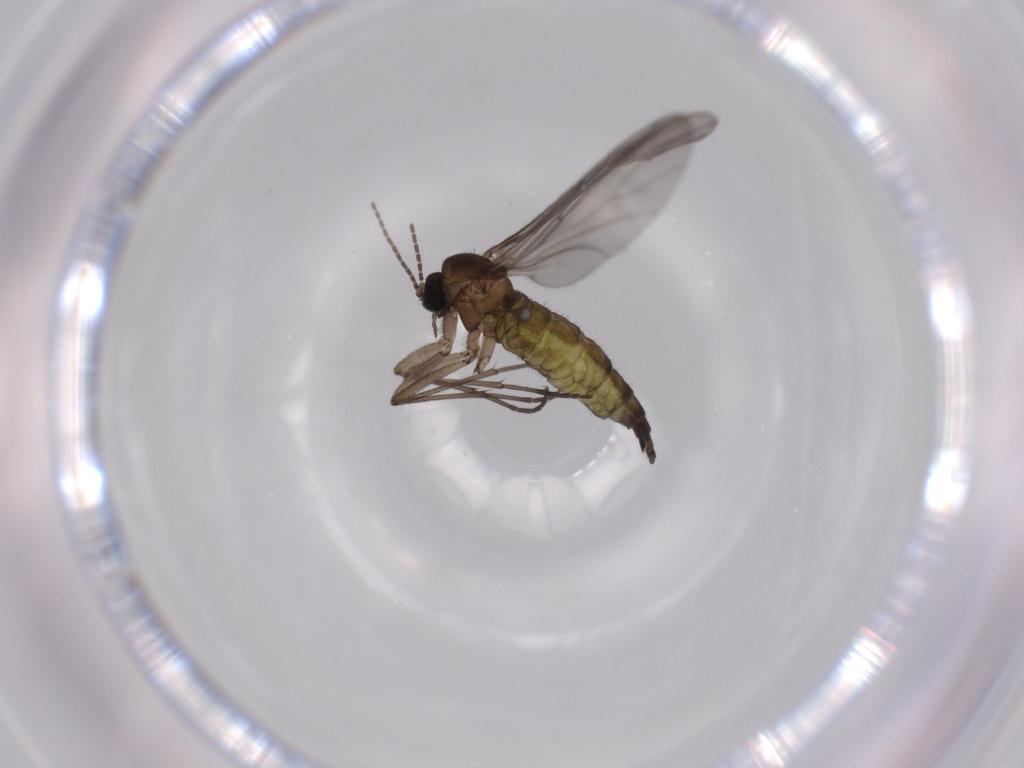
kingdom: Animalia
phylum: Arthropoda
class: Insecta
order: Diptera
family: Sciaridae
